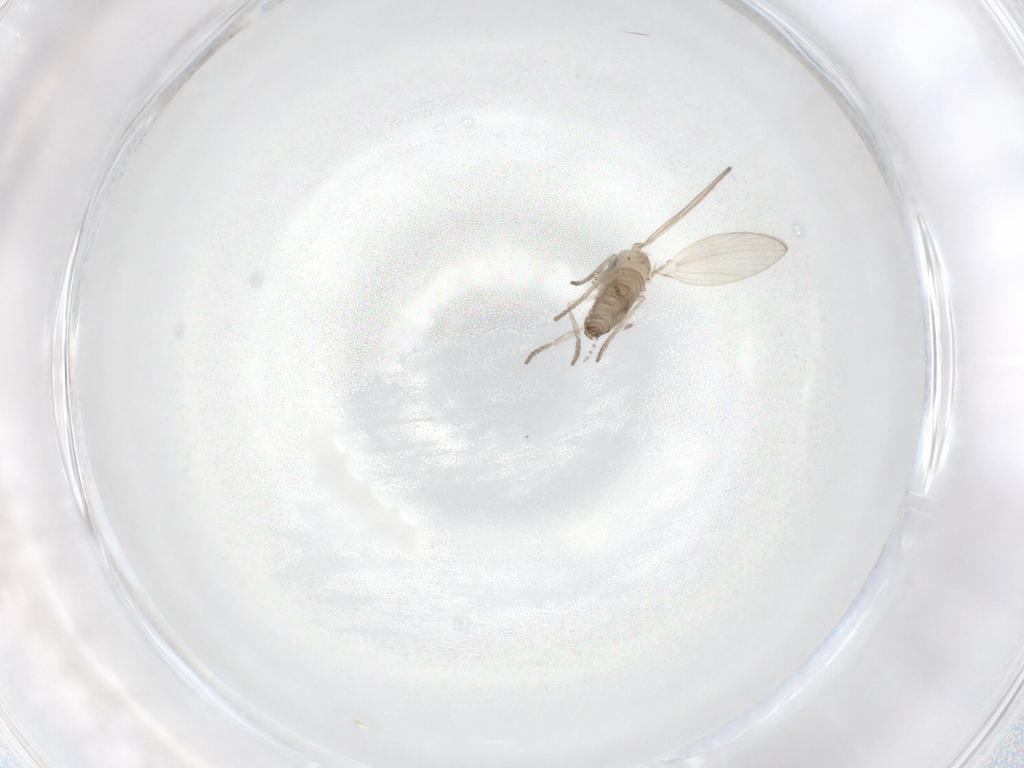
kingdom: Animalia
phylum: Arthropoda
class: Insecta
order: Diptera
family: Psychodidae
